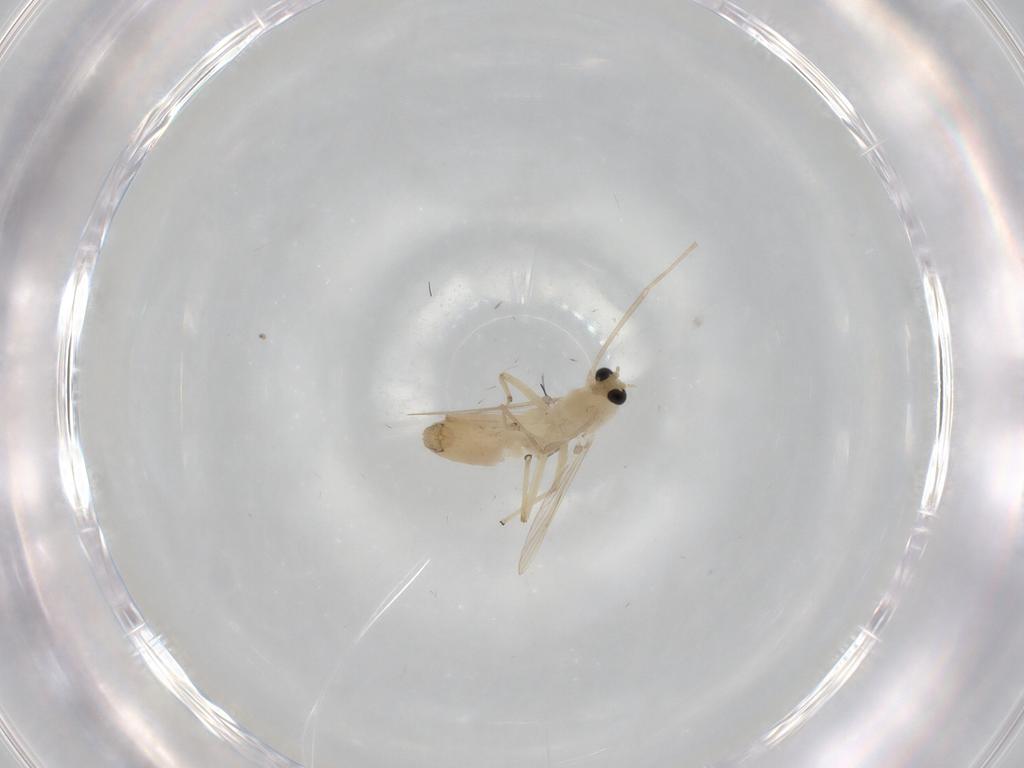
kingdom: Animalia
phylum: Arthropoda
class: Insecta
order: Diptera
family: Chironomidae
